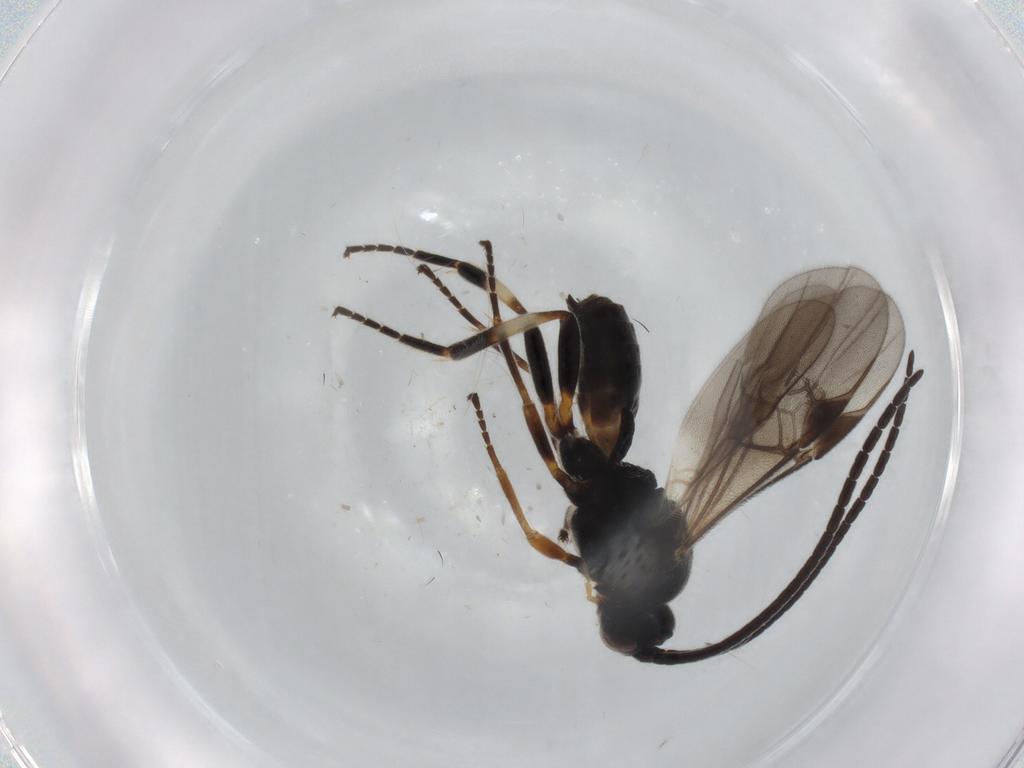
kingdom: Animalia
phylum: Arthropoda
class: Insecta
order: Hymenoptera
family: Braconidae
